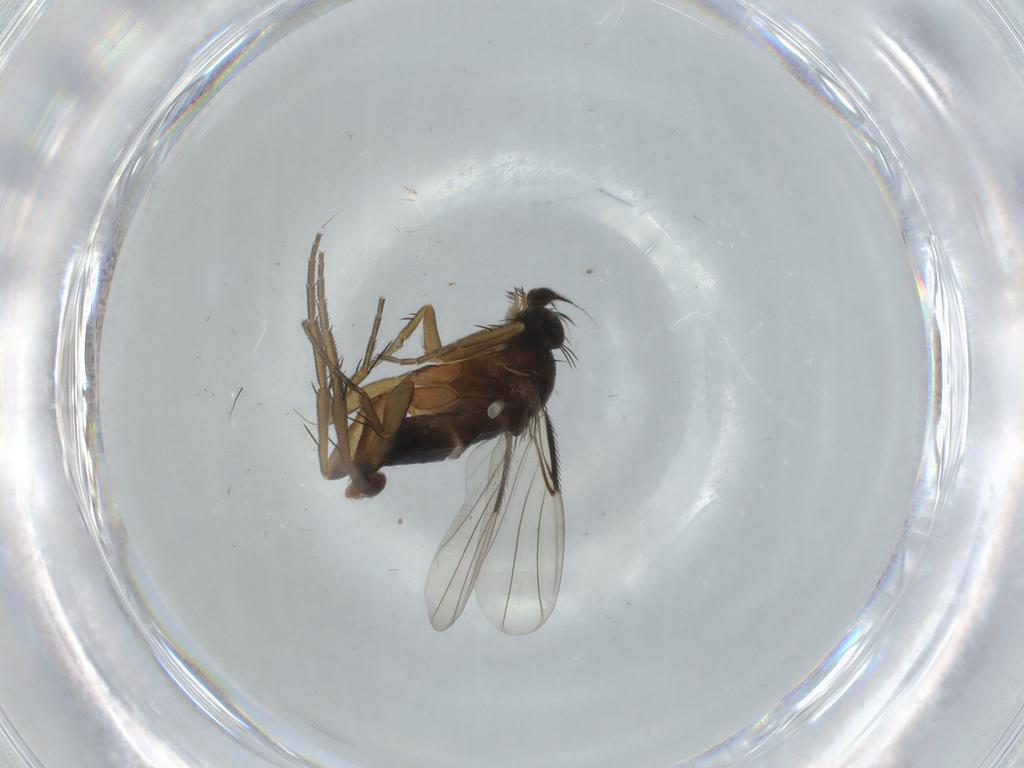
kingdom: Animalia
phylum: Arthropoda
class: Insecta
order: Diptera
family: Phoridae
